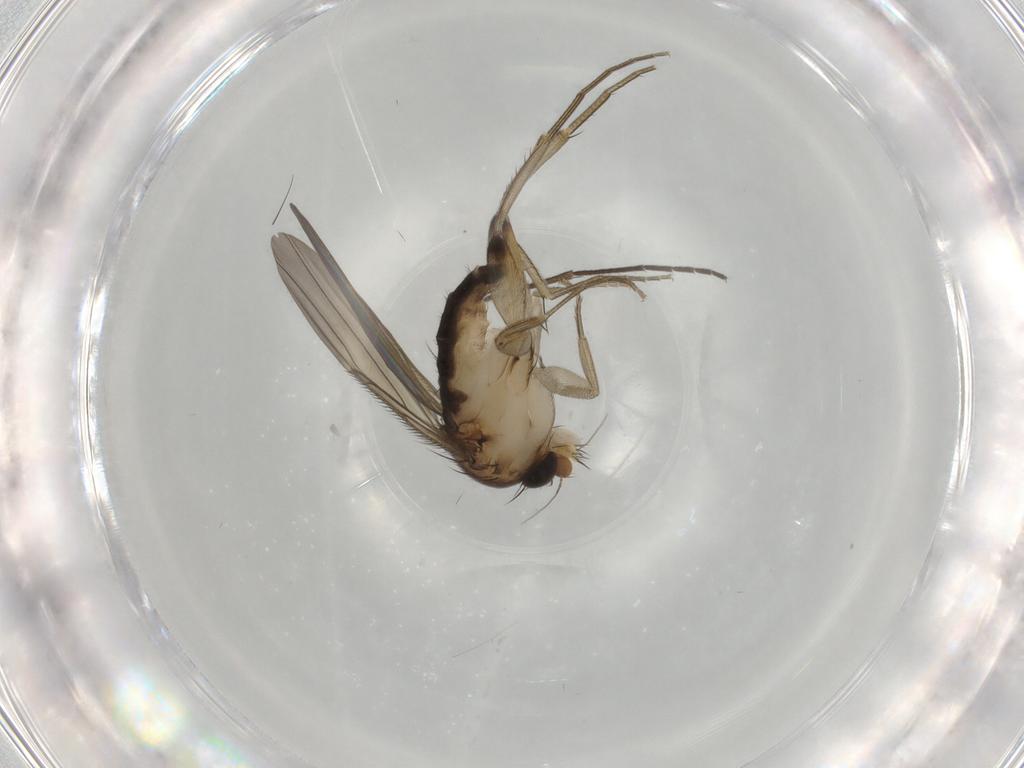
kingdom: Animalia
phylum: Arthropoda
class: Insecta
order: Diptera
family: Phoridae
